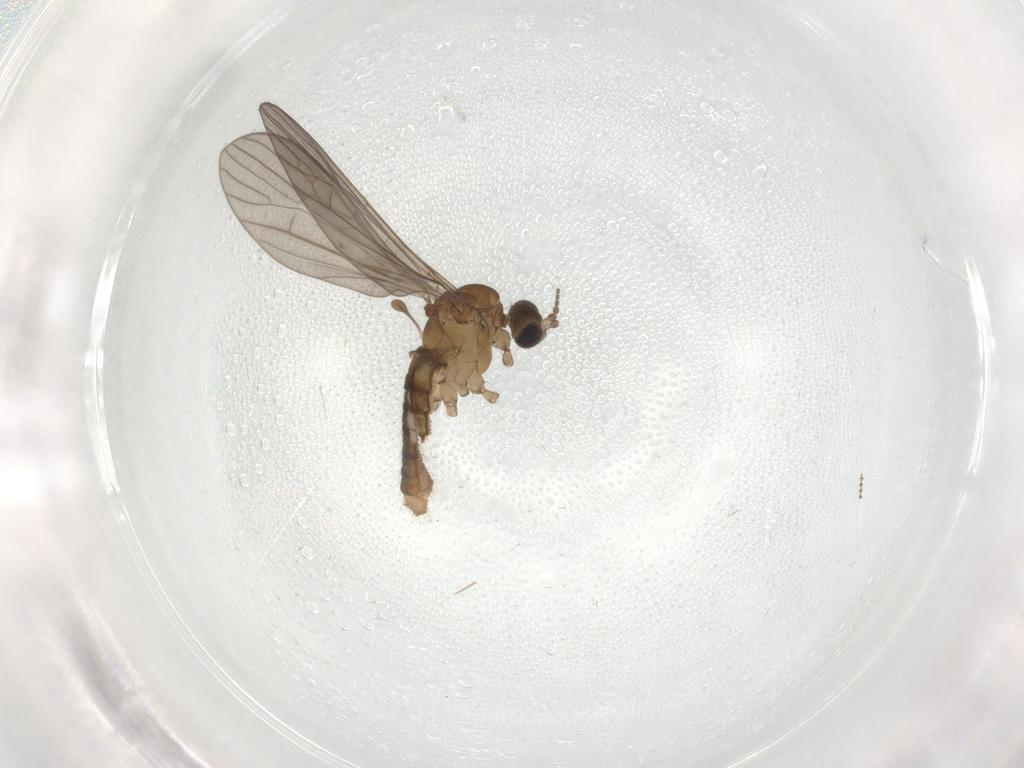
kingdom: Animalia
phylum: Arthropoda
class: Insecta
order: Diptera
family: Limoniidae
